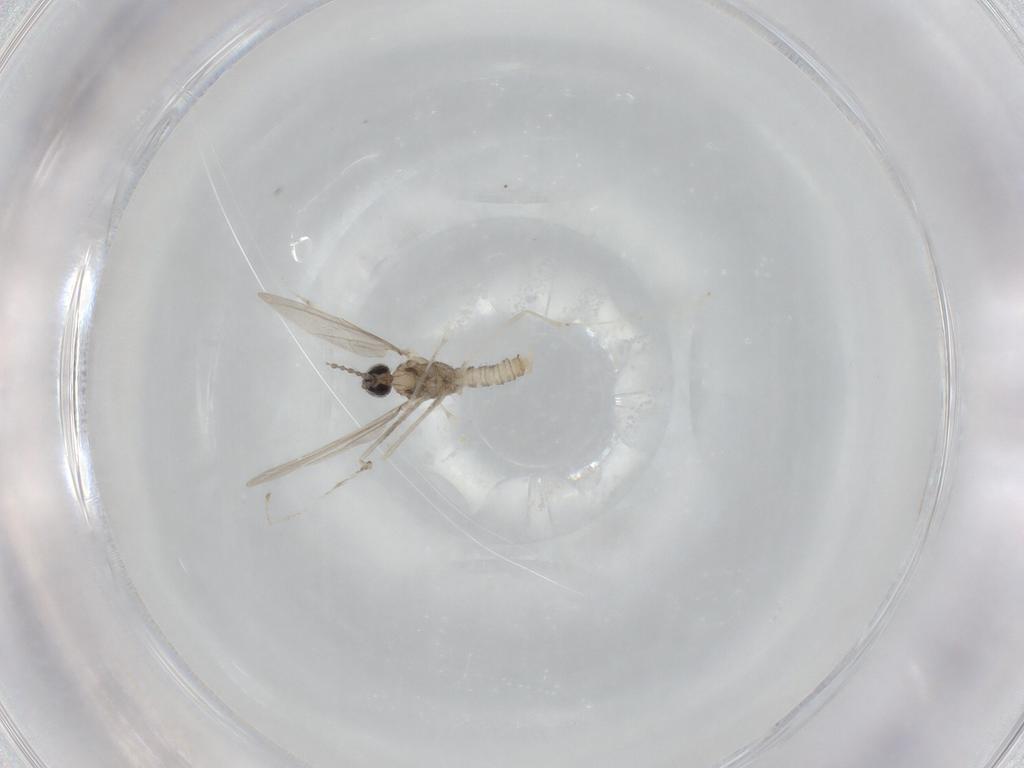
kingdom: Animalia
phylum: Arthropoda
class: Insecta
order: Diptera
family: Cecidomyiidae
